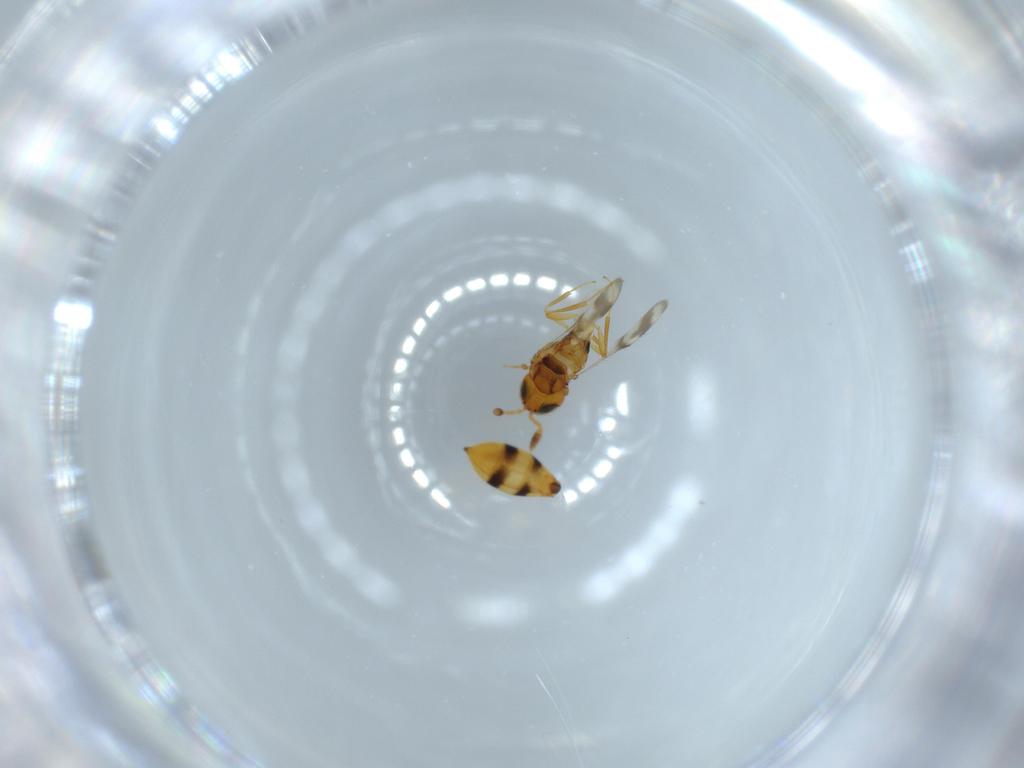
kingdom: Animalia
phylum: Arthropoda
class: Insecta
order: Hymenoptera
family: Scelionidae
